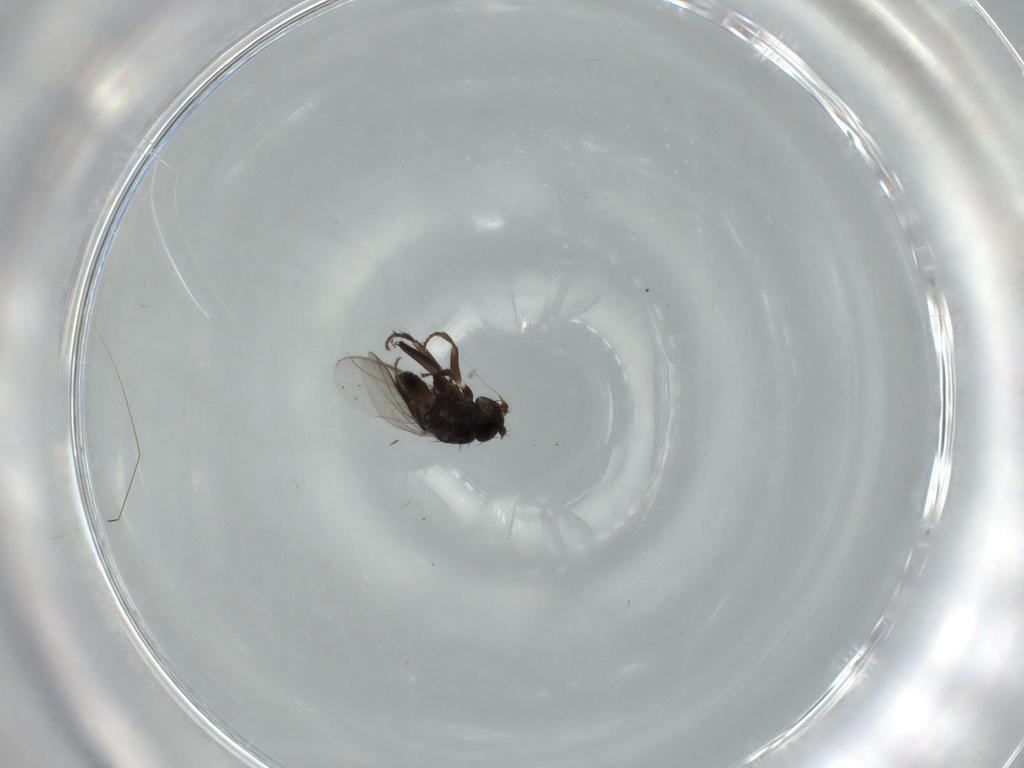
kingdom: Animalia
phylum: Arthropoda
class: Insecta
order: Diptera
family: Sphaeroceridae
